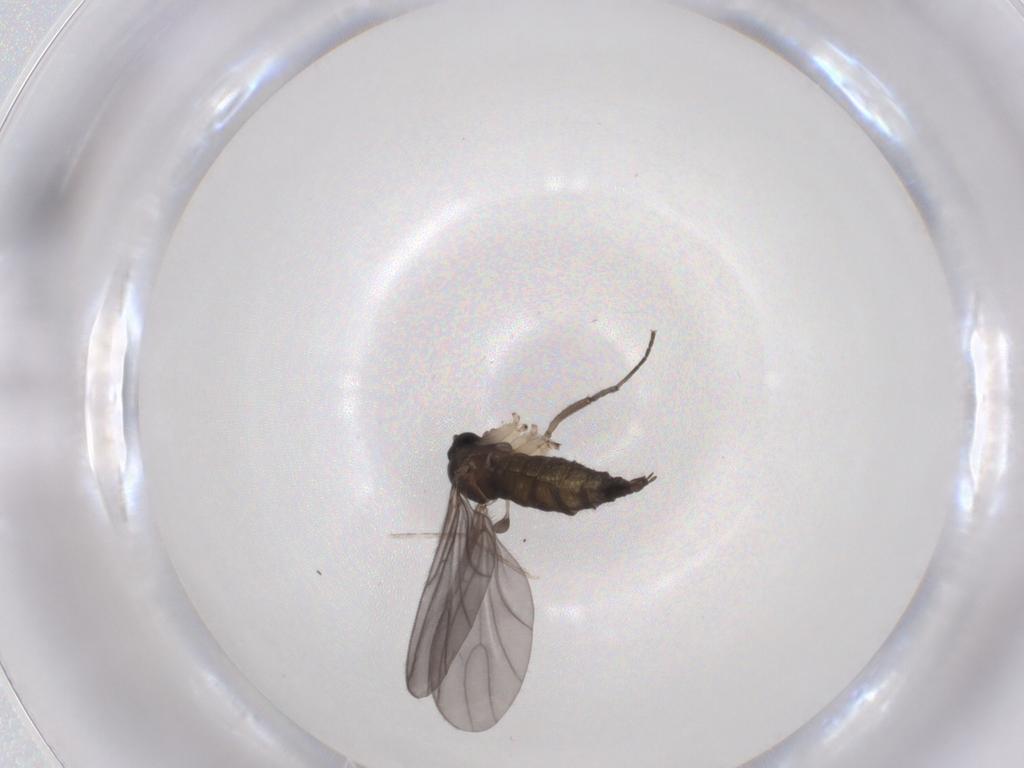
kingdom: Animalia
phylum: Arthropoda
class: Insecta
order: Diptera
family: Sciaridae
